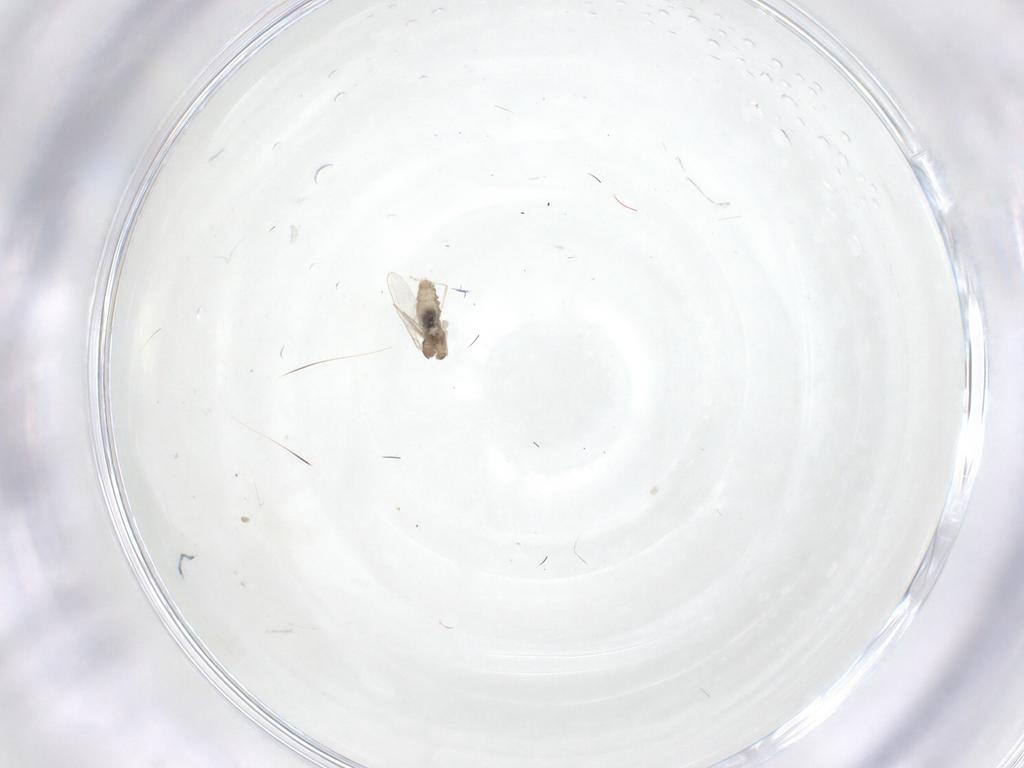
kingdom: Animalia
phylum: Arthropoda
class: Insecta
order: Diptera
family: Cecidomyiidae
